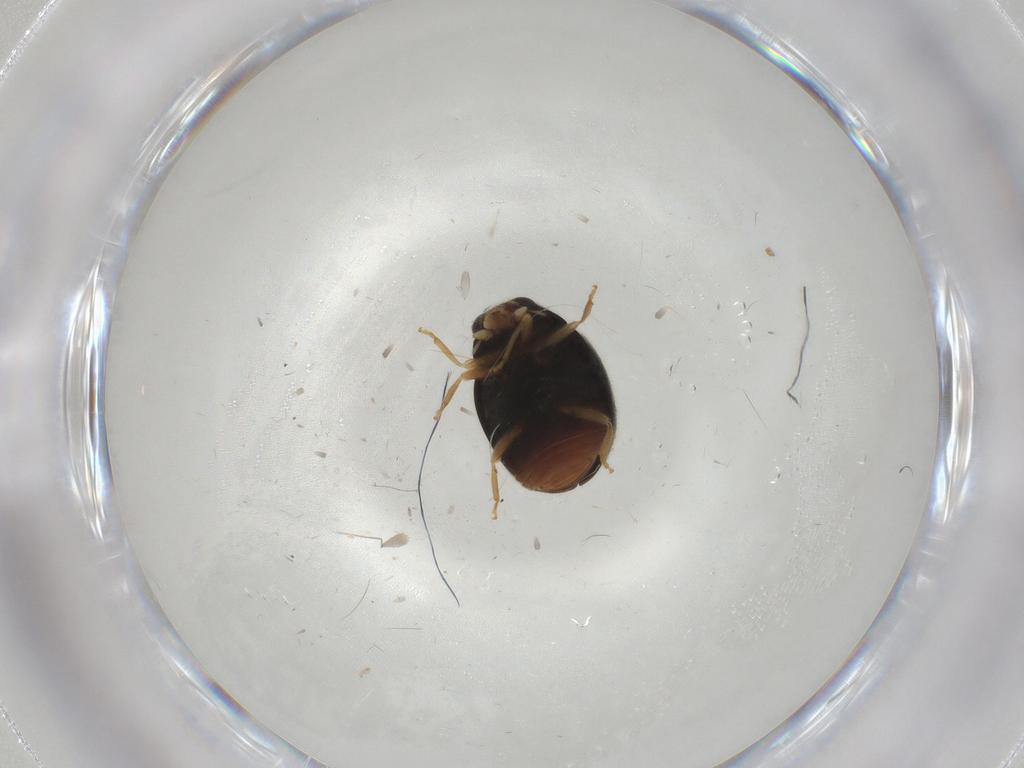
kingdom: Animalia
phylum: Arthropoda
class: Insecta
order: Coleoptera
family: Coccinellidae
